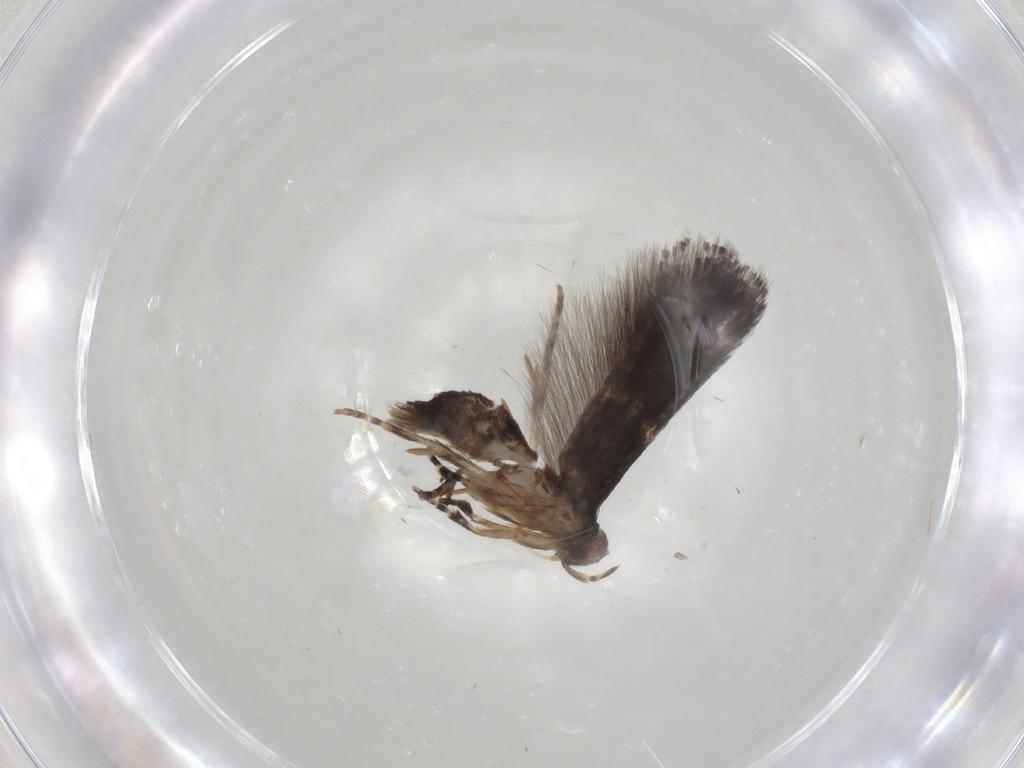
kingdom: Animalia
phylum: Arthropoda
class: Insecta
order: Lepidoptera
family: Elachistidae
